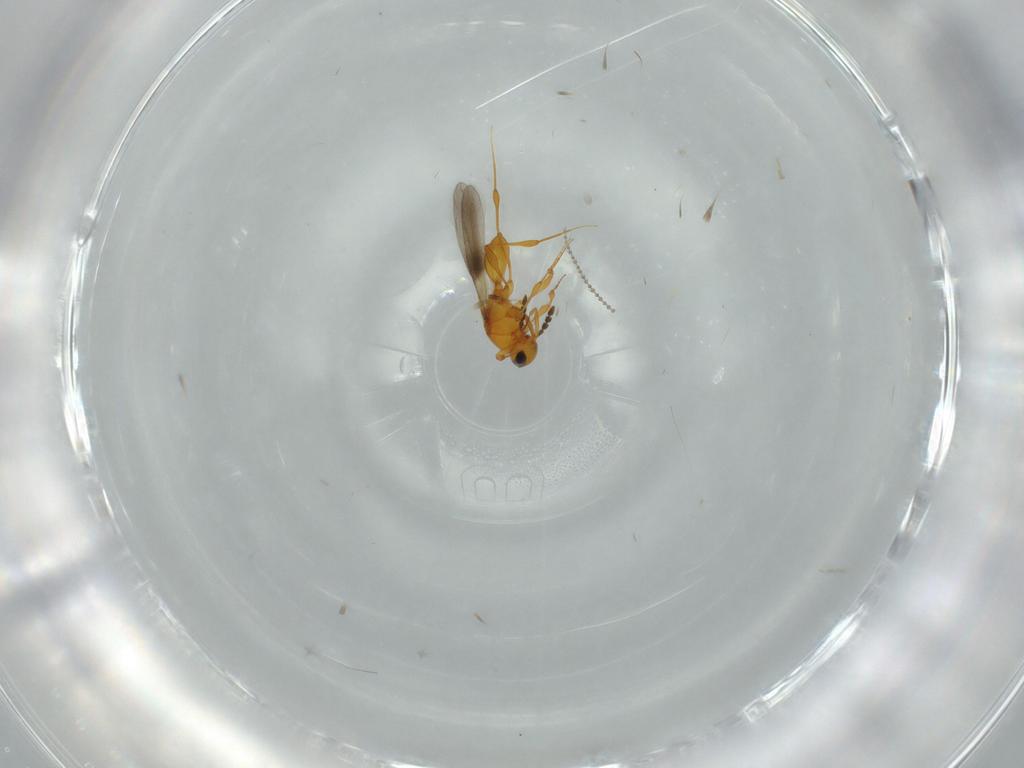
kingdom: Animalia
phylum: Arthropoda
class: Insecta
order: Hymenoptera
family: Platygastridae
